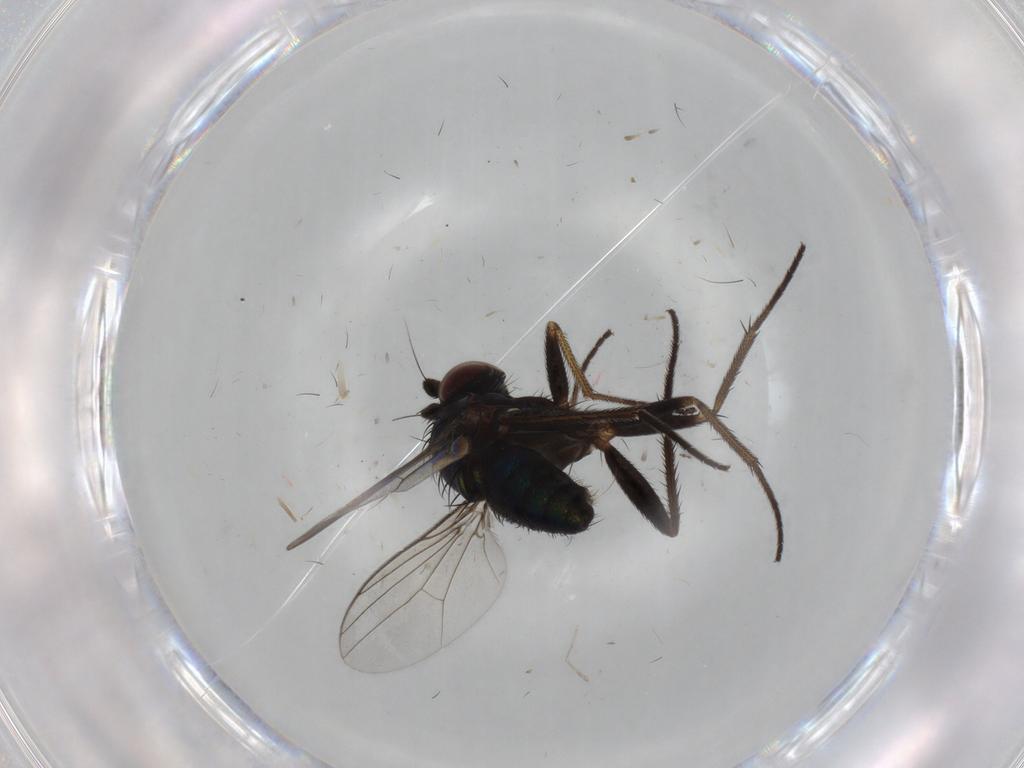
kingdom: Animalia
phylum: Arthropoda
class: Insecta
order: Diptera
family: Dolichopodidae
